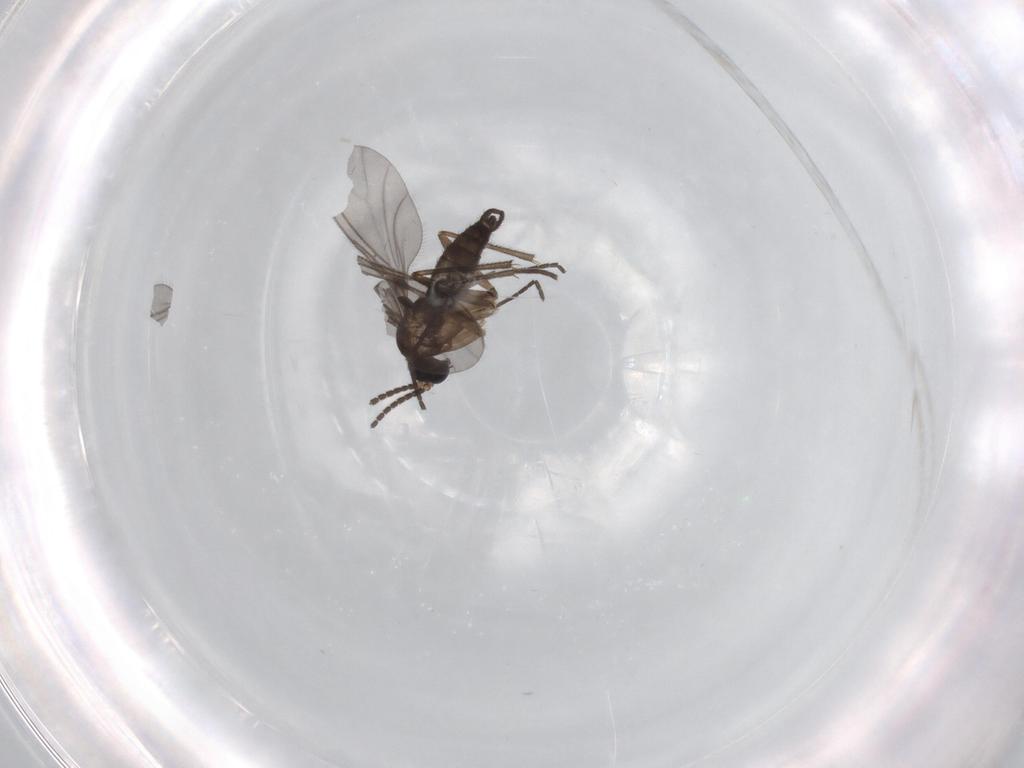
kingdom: Animalia
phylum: Arthropoda
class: Insecta
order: Diptera
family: Sciaridae
